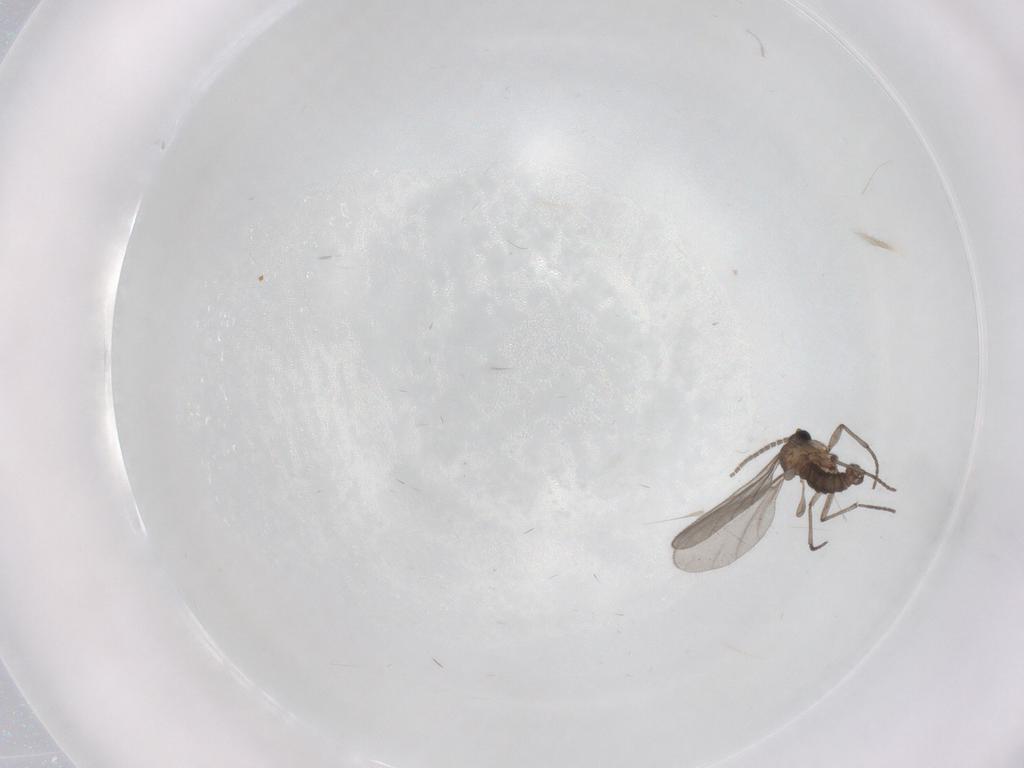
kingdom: Animalia
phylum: Arthropoda
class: Insecta
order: Diptera
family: Sciaridae
